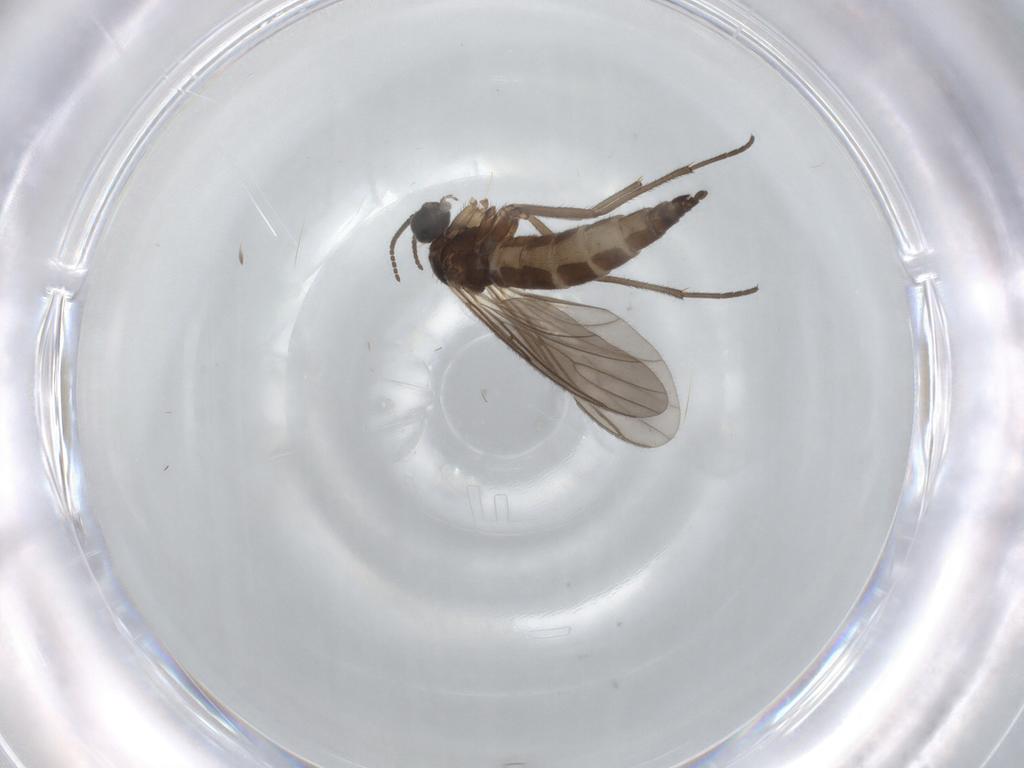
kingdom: Animalia
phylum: Arthropoda
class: Insecta
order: Diptera
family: Sciaridae
